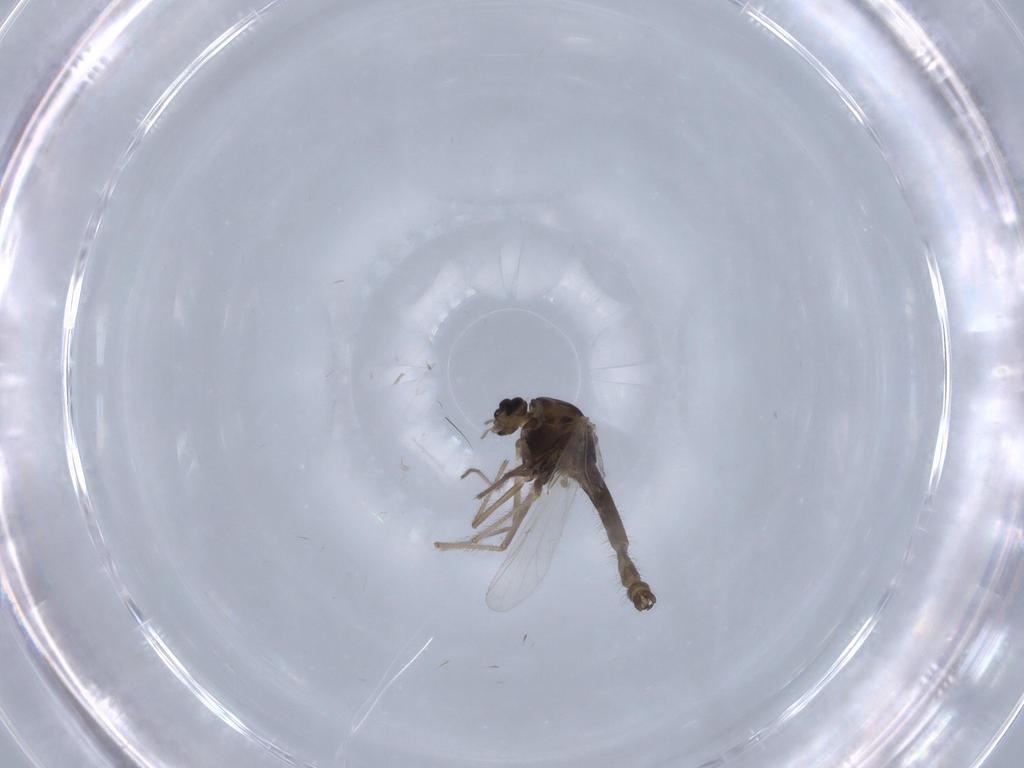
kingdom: Animalia
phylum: Arthropoda
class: Insecta
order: Diptera
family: Chironomidae
